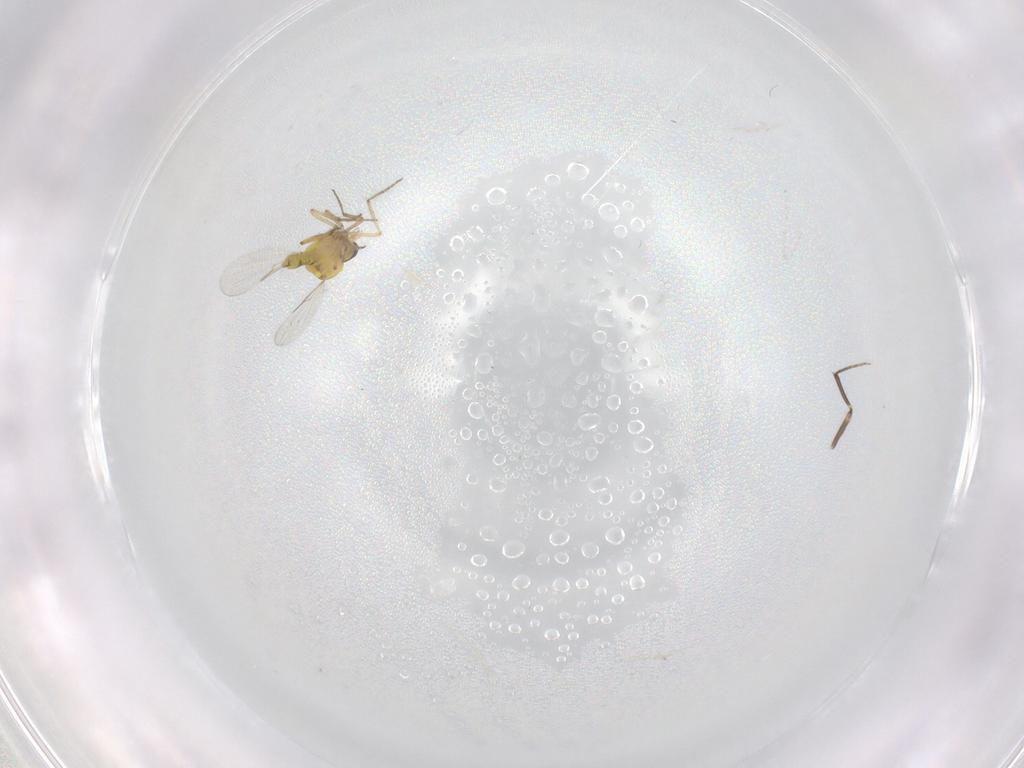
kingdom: Animalia
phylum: Arthropoda
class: Insecta
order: Diptera
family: Ceratopogonidae
